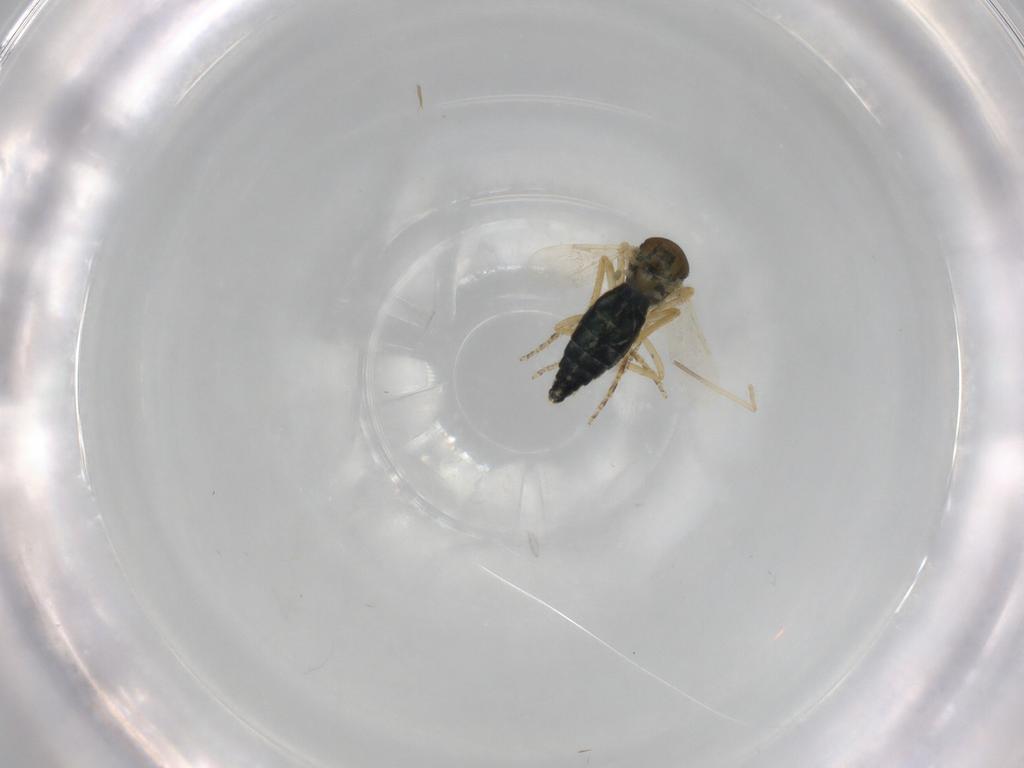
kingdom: Animalia
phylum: Arthropoda
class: Insecta
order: Diptera
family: Ceratopogonidae
